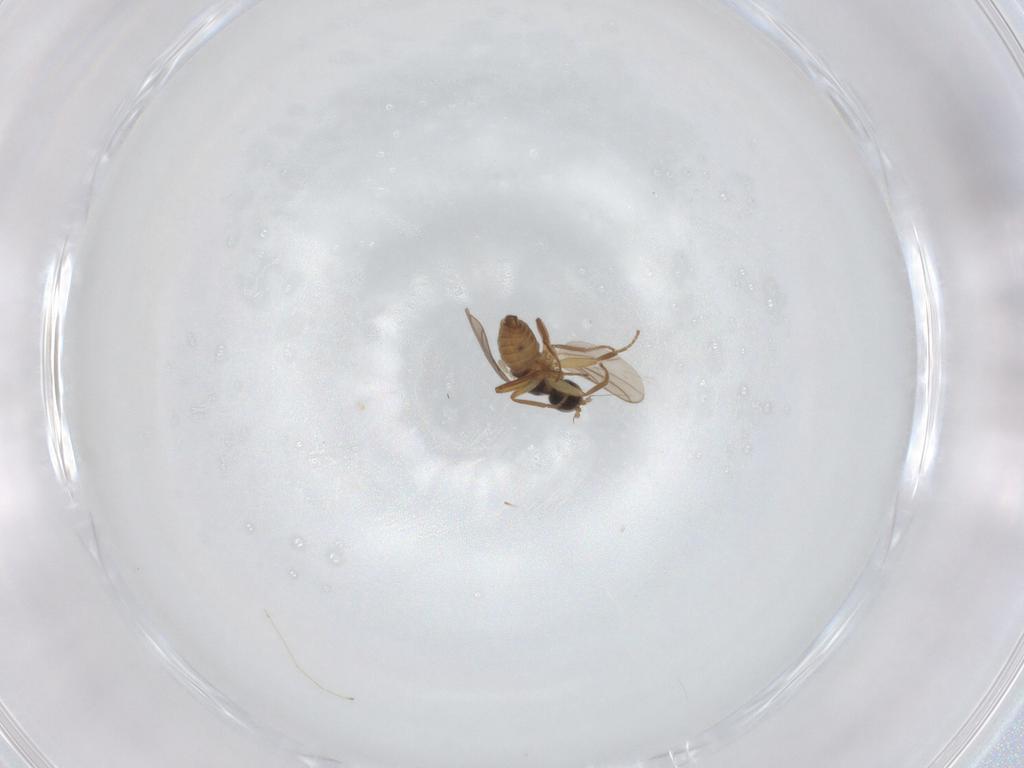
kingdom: Animalia
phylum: Arthropoda
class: Insecta
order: Diptera
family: Hybotidae
